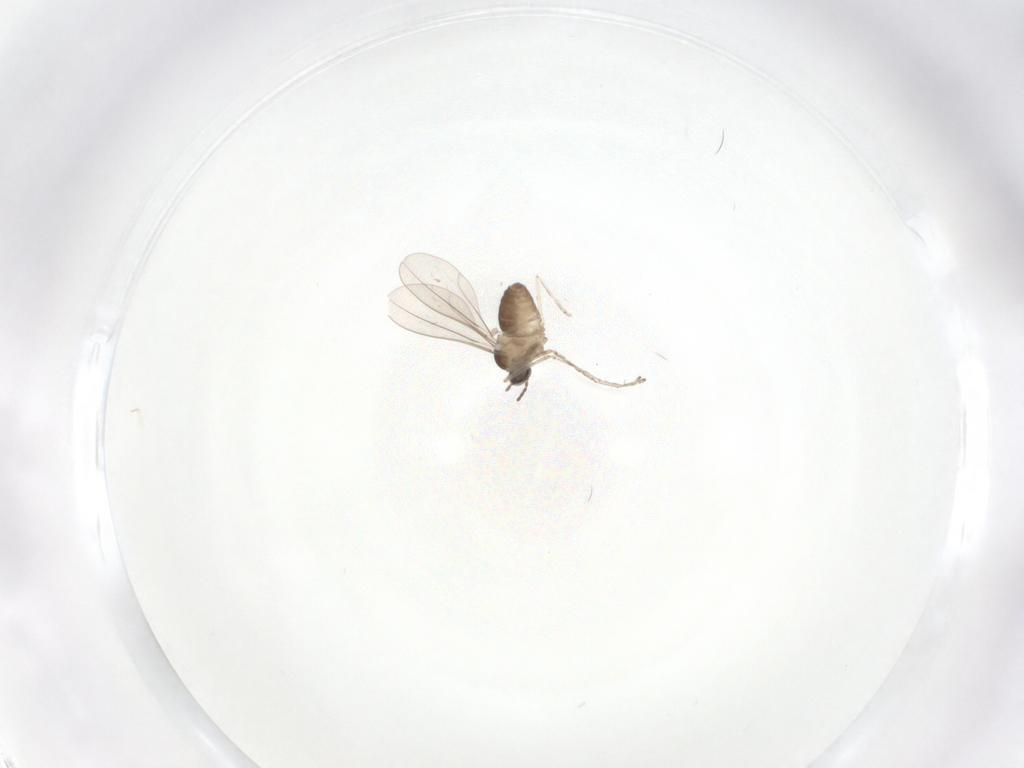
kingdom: Animalia
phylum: Arthropoda
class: Insecta
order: Diptera
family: Cecidomyiidae
